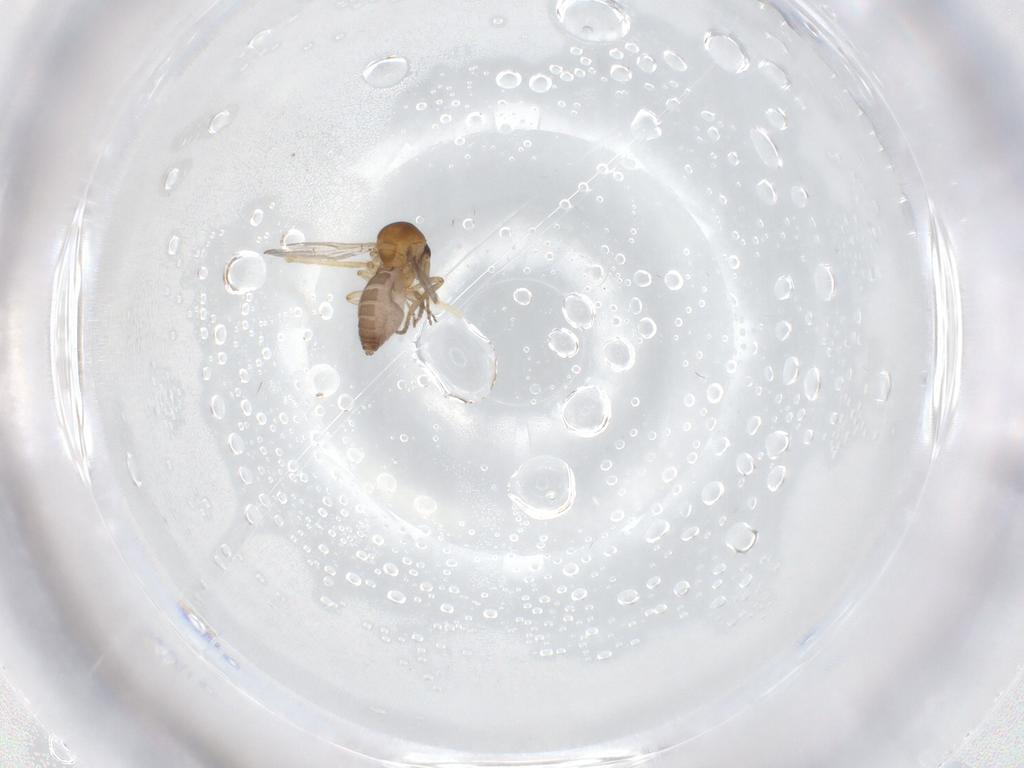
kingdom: Animalia
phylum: Arthropoda
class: Insecta
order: Diptera
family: Chironomidae
